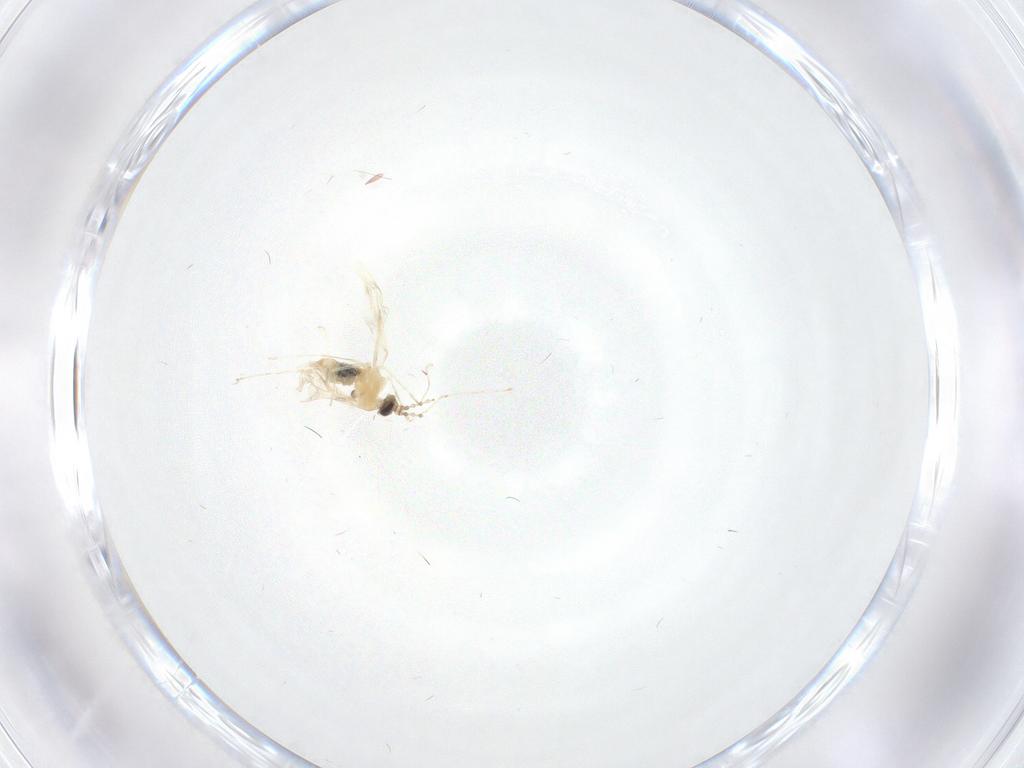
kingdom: Animalia
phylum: Arthropoda
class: Insecta
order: Diptera
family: Cecidomyiidae
